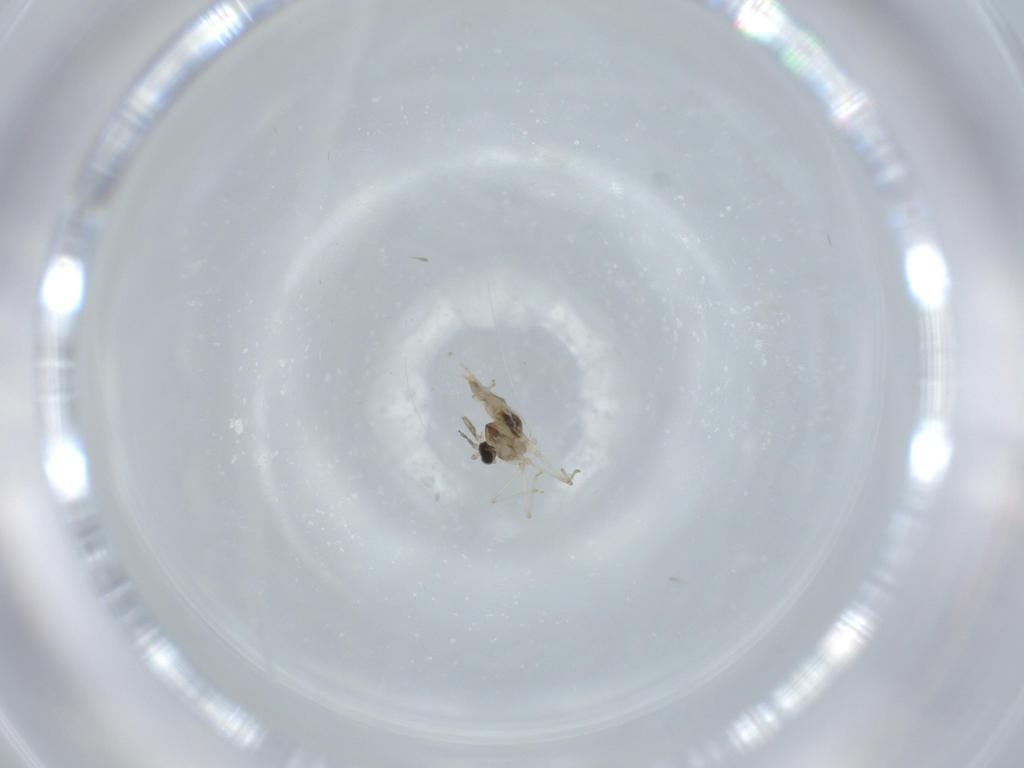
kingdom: Animalia
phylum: Arthropoda
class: Insecta
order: Diptera
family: Cecidomyiidae
